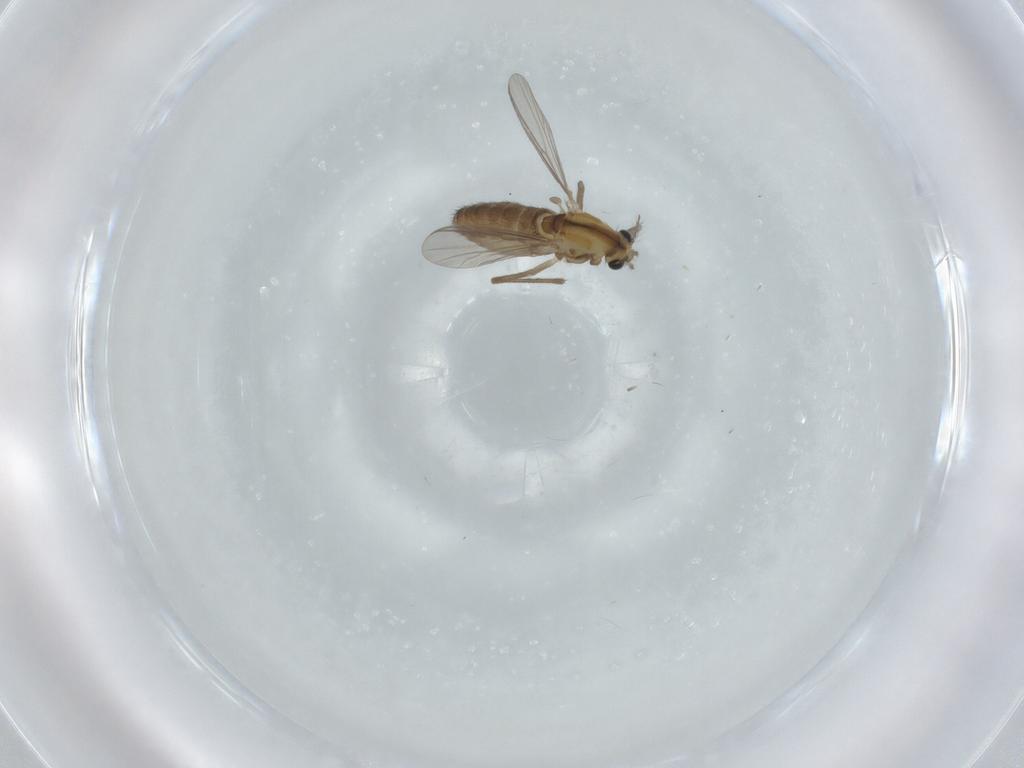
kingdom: Animalia
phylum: Arthropoda
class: Insecta
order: Diptera
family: Chironomidae
